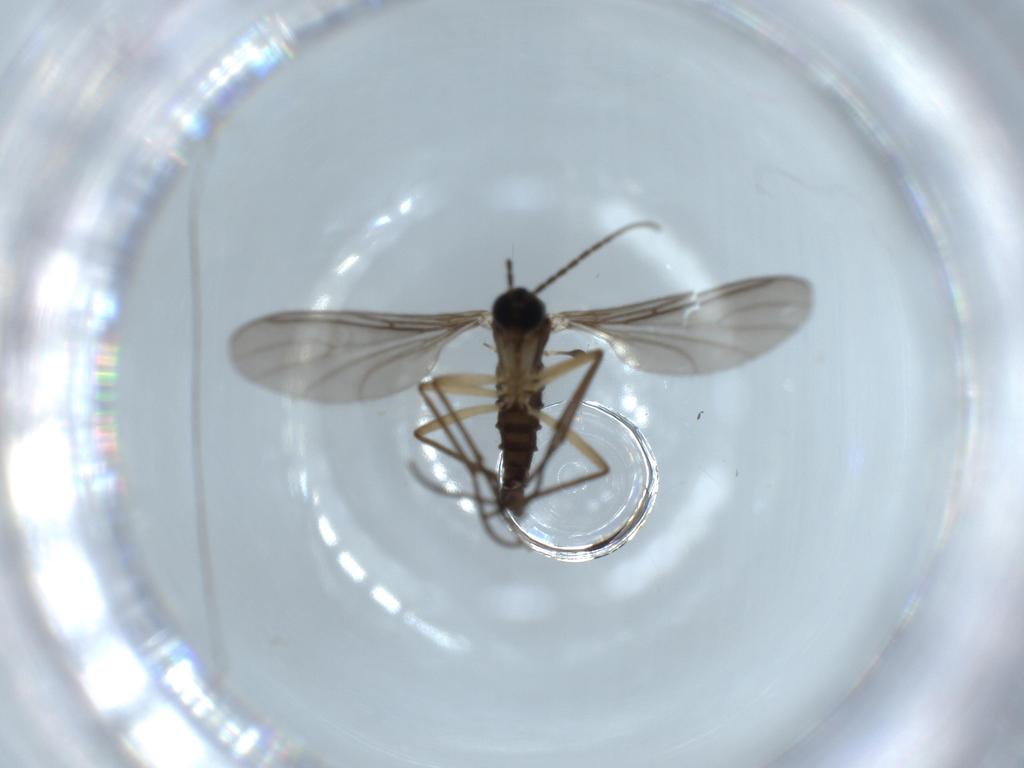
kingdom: Animalia
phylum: Arthropoda
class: Insecta
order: Diptera
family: Sciaridae
